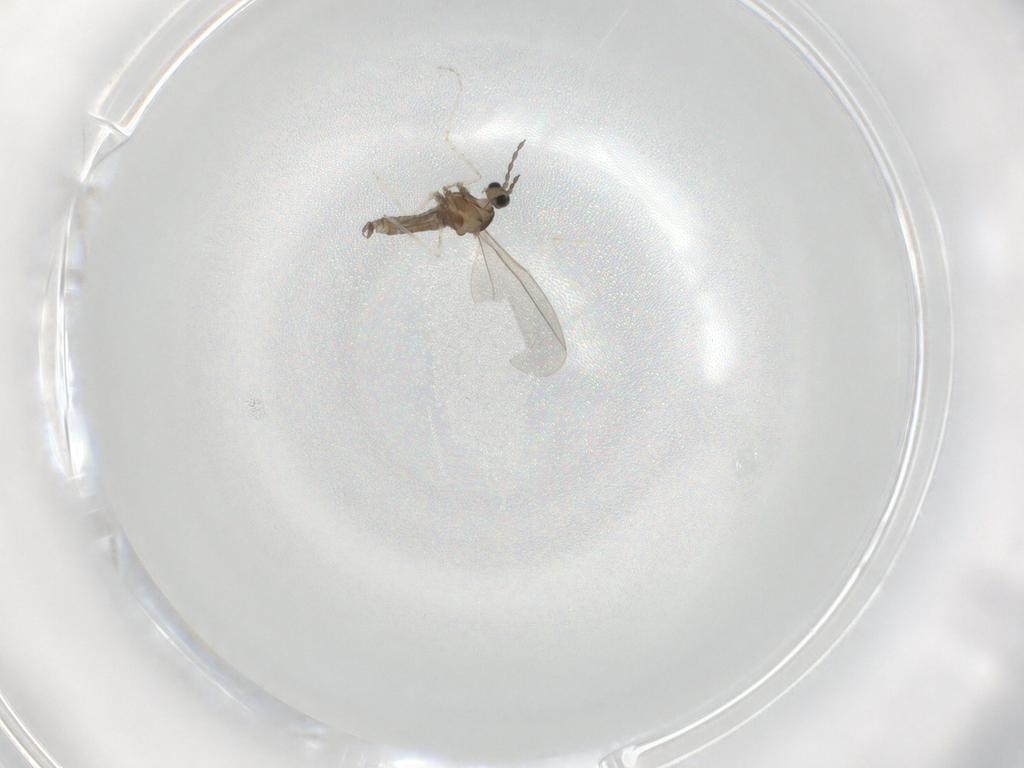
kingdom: Animalia
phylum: Arthropoda
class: Insecta
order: Diptera
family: Cecidomyiidae
